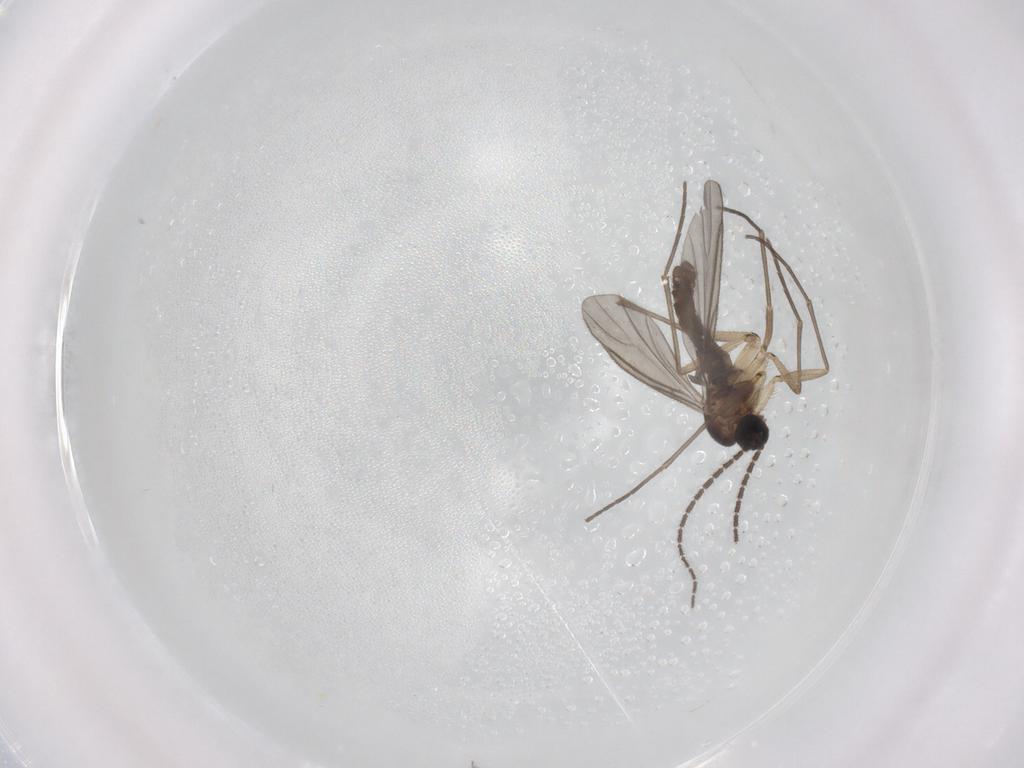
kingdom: Animalia
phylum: Arthropoda
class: Insecta
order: Diptera
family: Sciaridae
